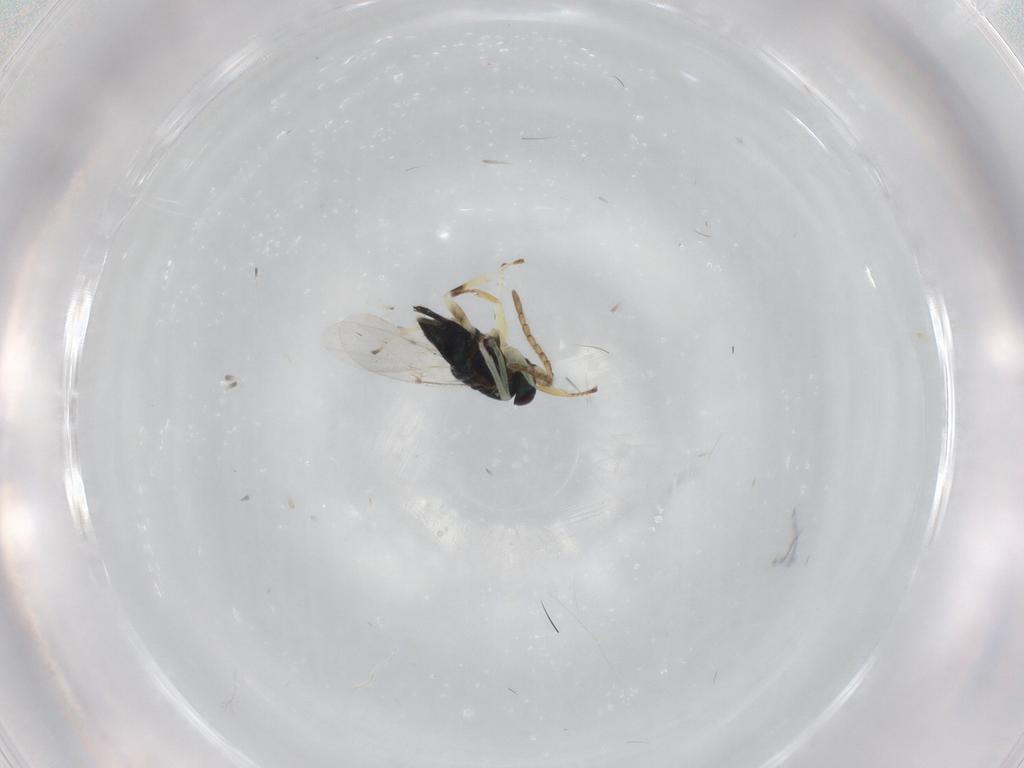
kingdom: Animalia
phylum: Arthropoda
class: Insecta
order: Hymenoptera
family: Encyrtidae
